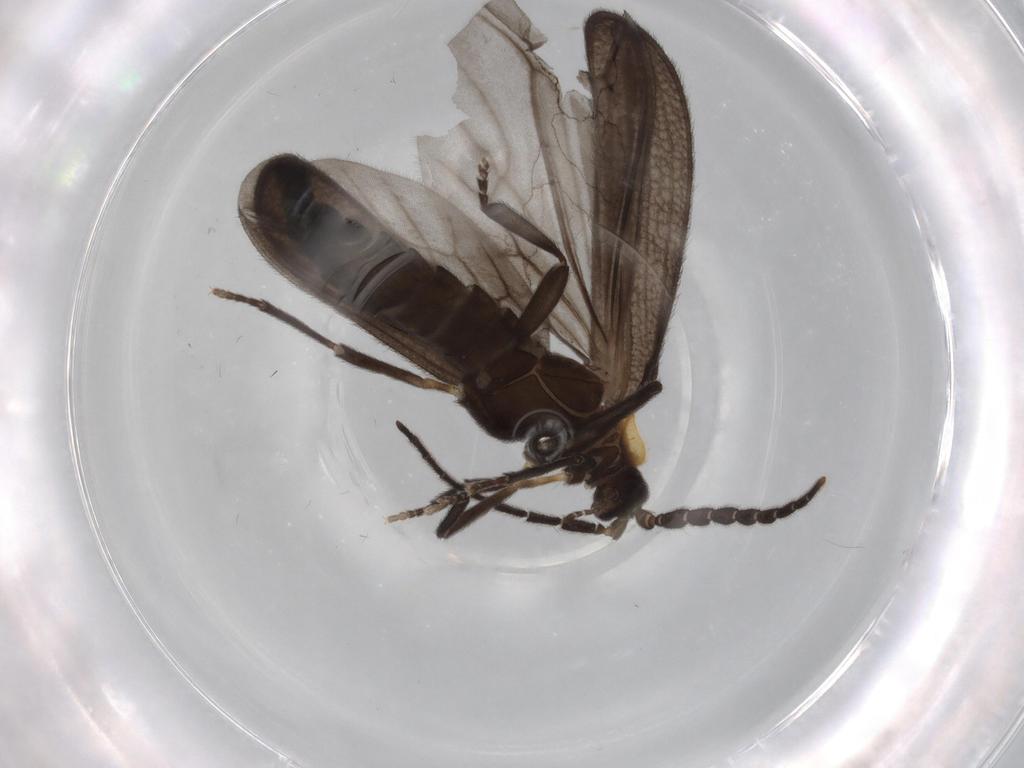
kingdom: Animalia
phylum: Arthropoda
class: Insecta
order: Coleoptera
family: Lycidae
